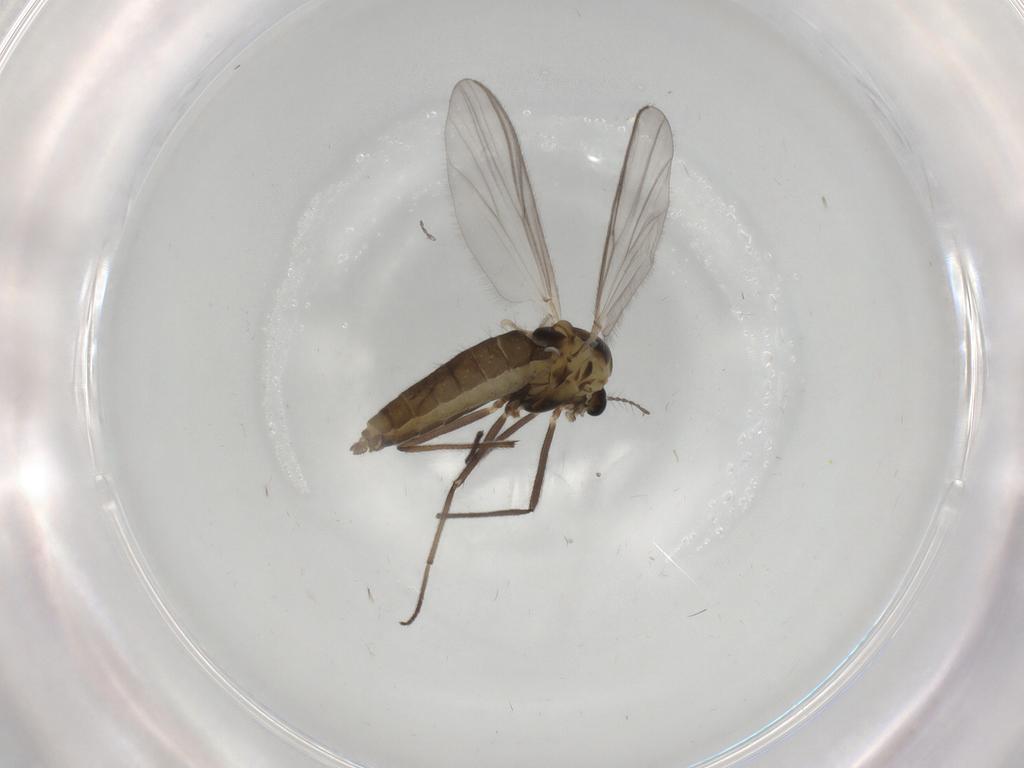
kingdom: Animalia
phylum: Arthropoda
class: Insecta
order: Diptera
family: Chironomidae
